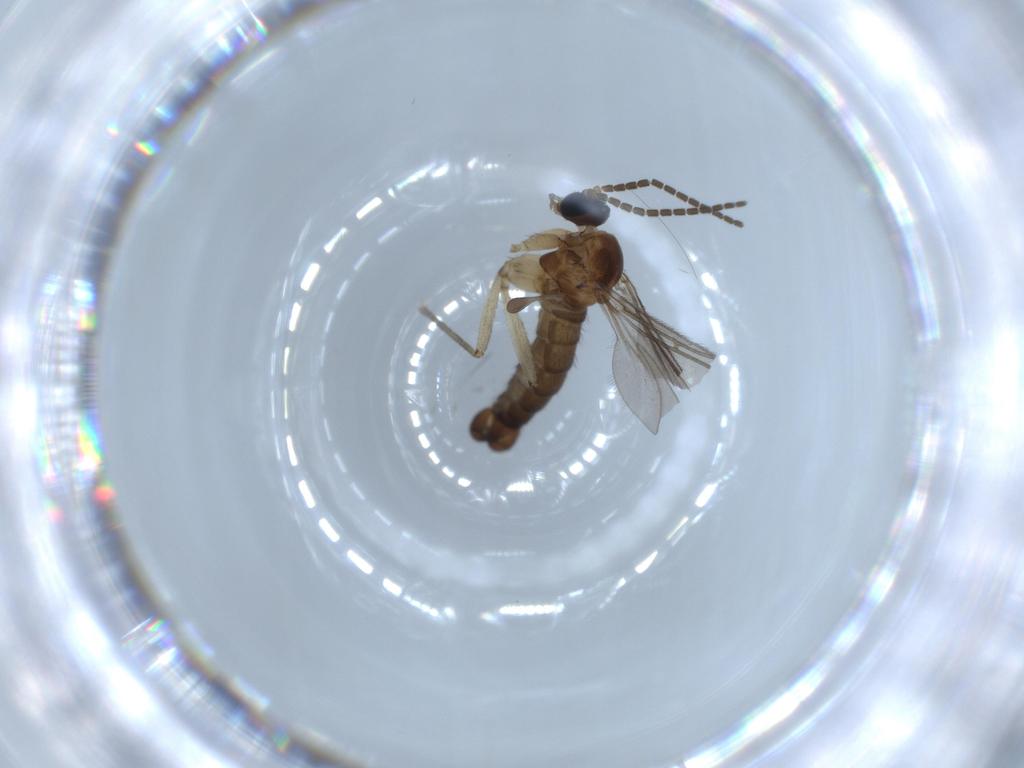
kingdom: Animalia
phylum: Arthropoda
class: Insecta
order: Diptera
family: Sciaridae
